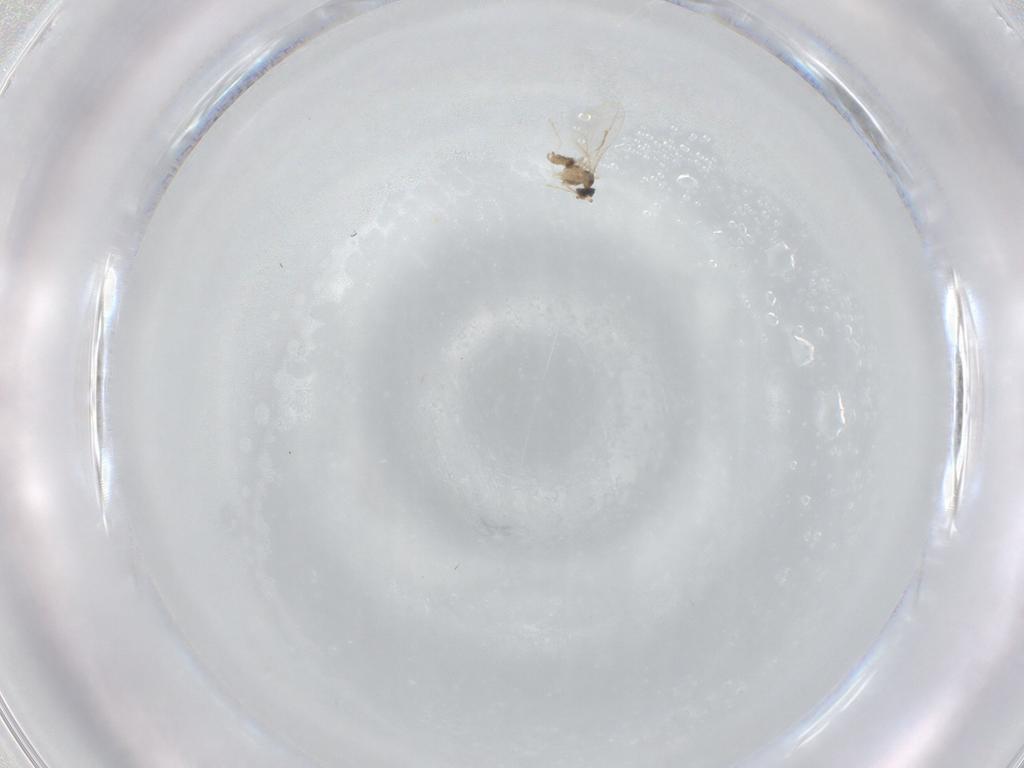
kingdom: Animalia
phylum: Arthropoda
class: Insecta
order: Diptera
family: Cecidomyiidae
